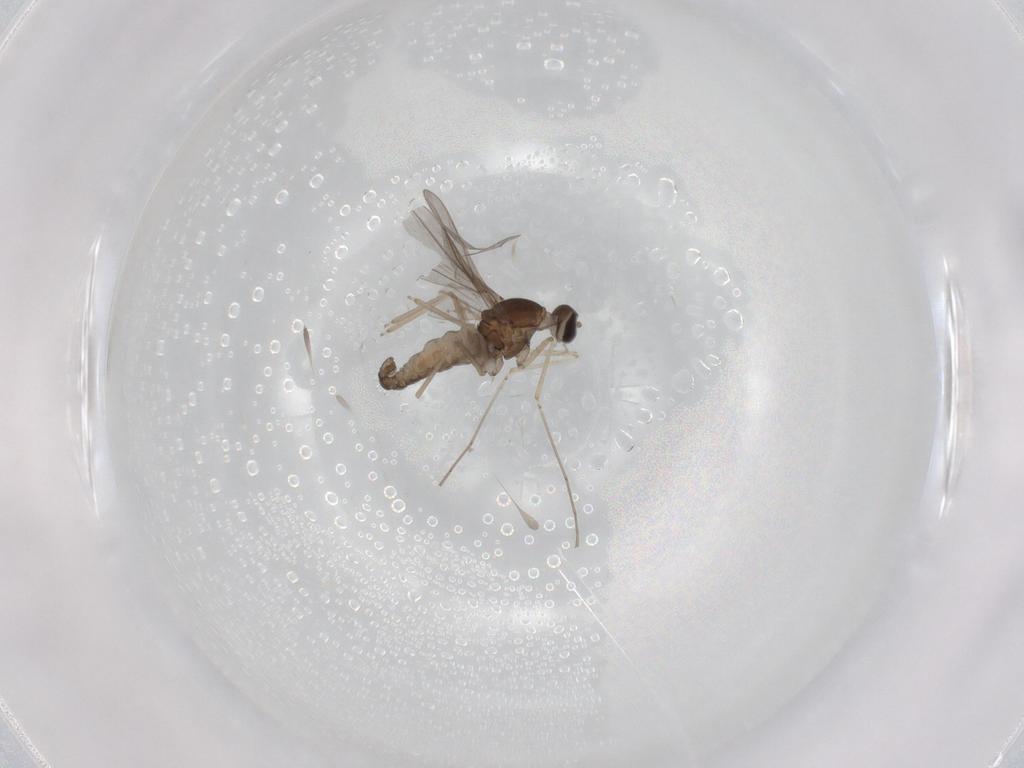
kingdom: Animalia
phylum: Arthropoda
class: Insecta
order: Diptera
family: Cecidomyiidae
